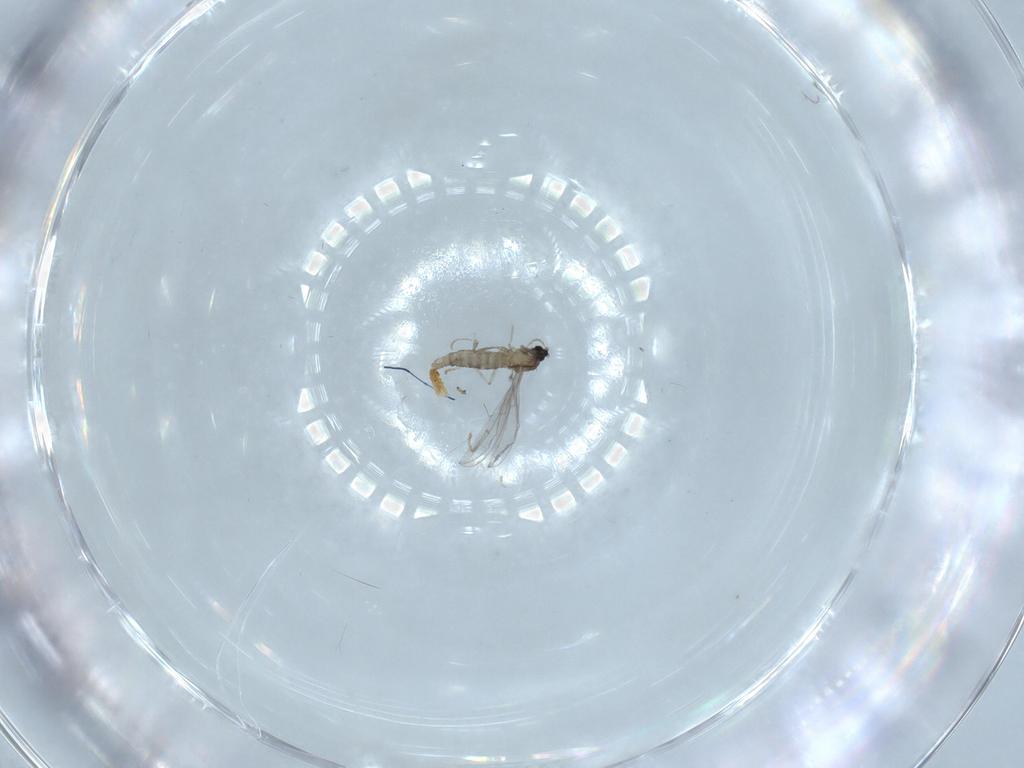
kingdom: Animalia
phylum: Arthropoda
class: Insecta
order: Diptera
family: Cecidomyiidae
